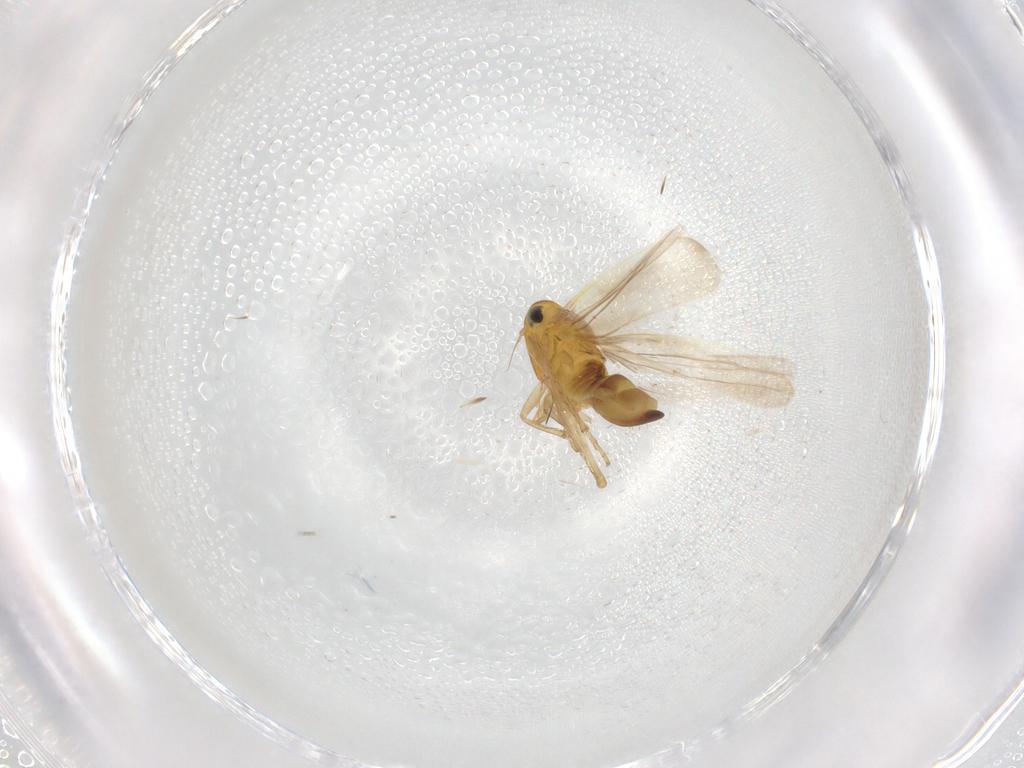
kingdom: Animalia
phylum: Arthropoda
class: Insecta
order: Hemiptera
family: Cicadellidae
